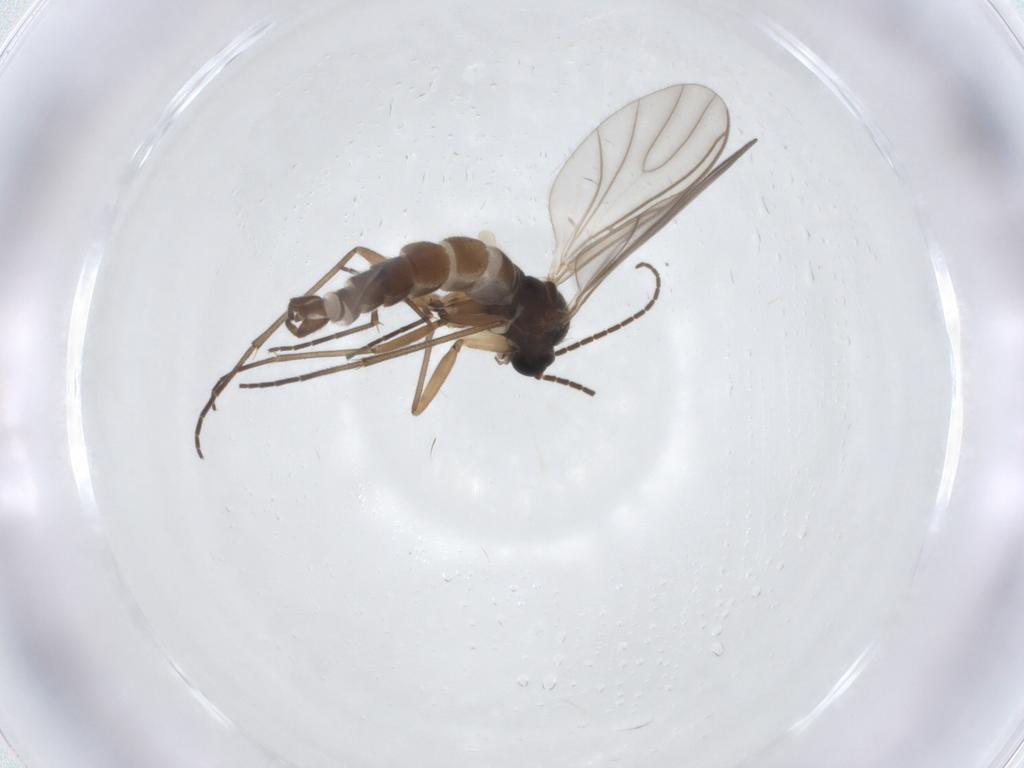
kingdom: Animalia
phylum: Arthropoda
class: Insecta
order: Diptera
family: Sciaridae
